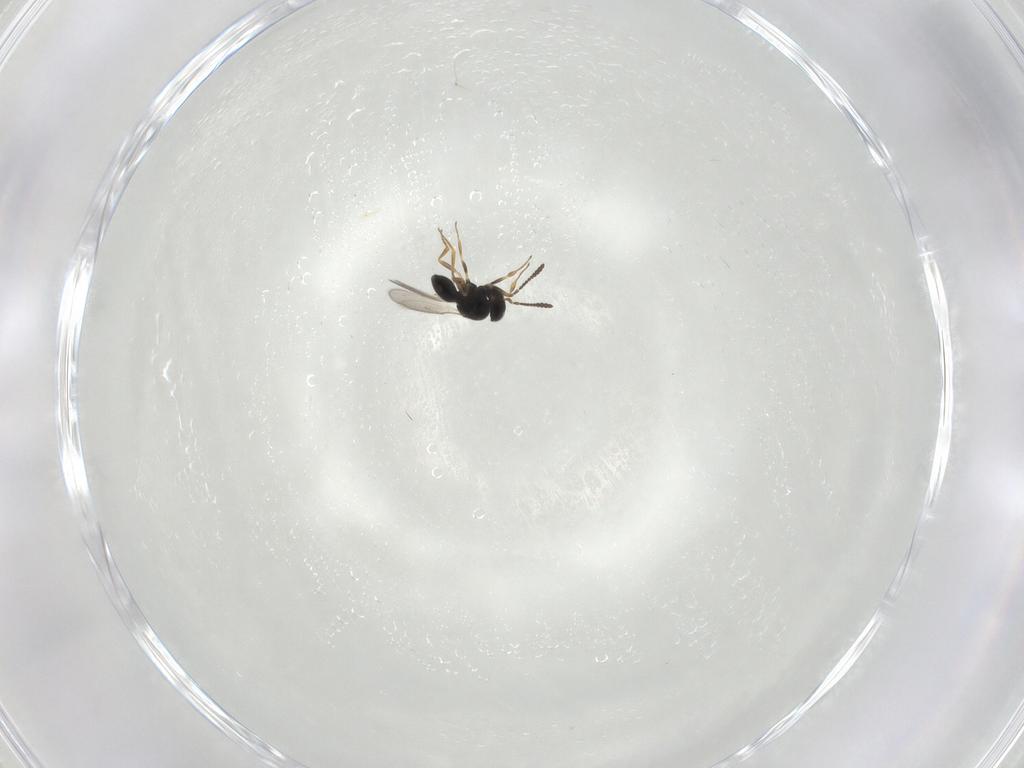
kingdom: Animalia
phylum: Arthropoda
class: Insecta
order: Hymenoptera
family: Scelionidae
